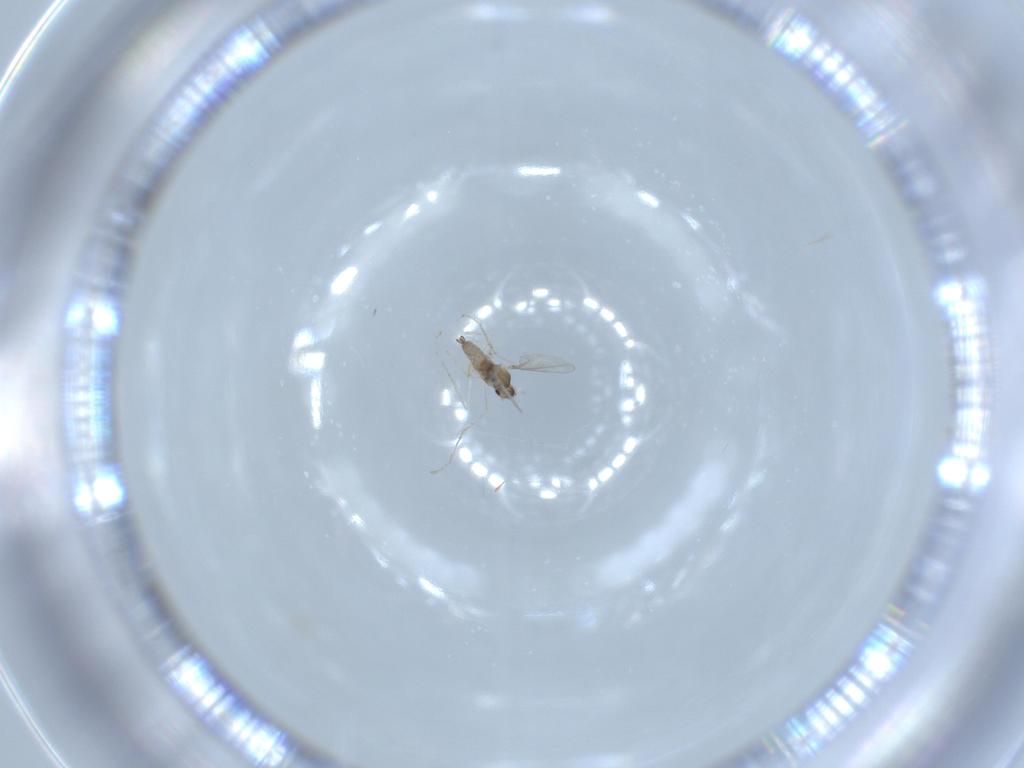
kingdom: Animalia
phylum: Arthropoda
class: Insecta
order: Diptera
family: Cecidomyiidae
